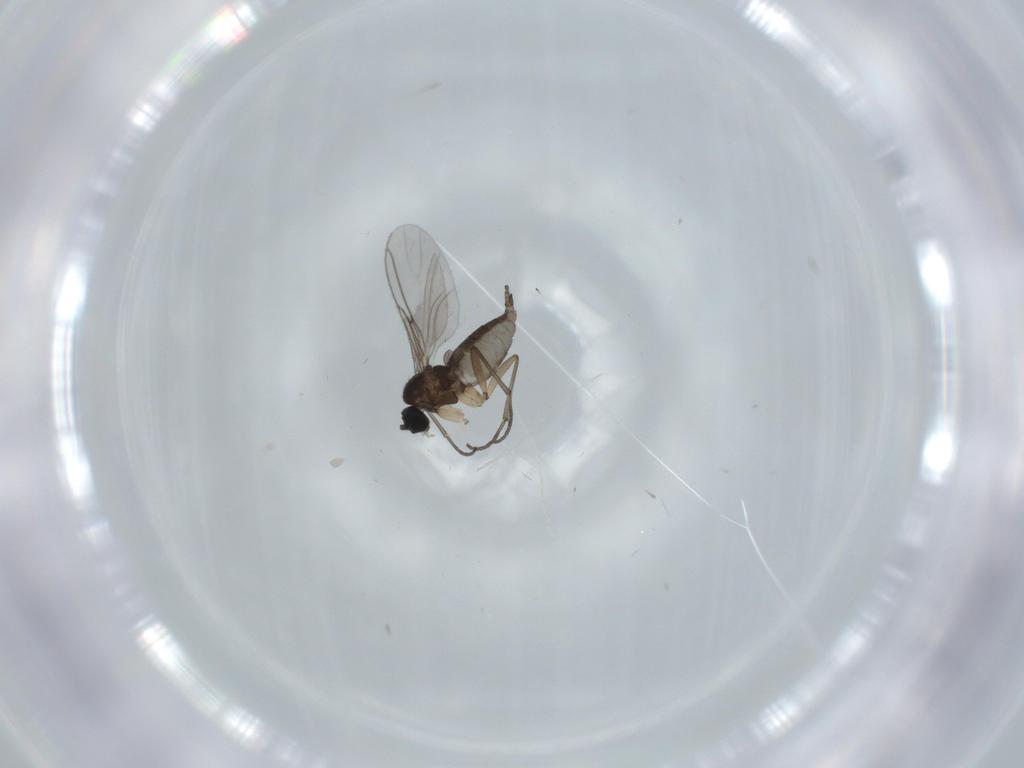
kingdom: Animalia
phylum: Arthropoda
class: Insecta
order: Diptera
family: Sciaridae
